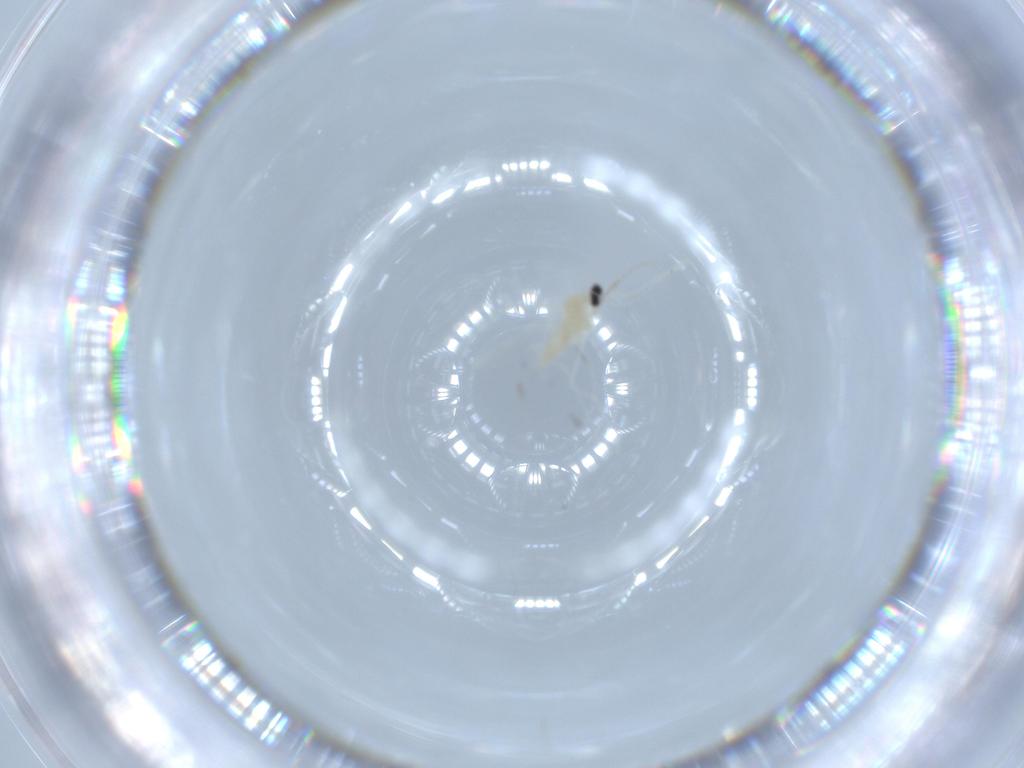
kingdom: Animalia
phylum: Arthropoda
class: Insecta
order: Diptera
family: Cecidomyiidae
